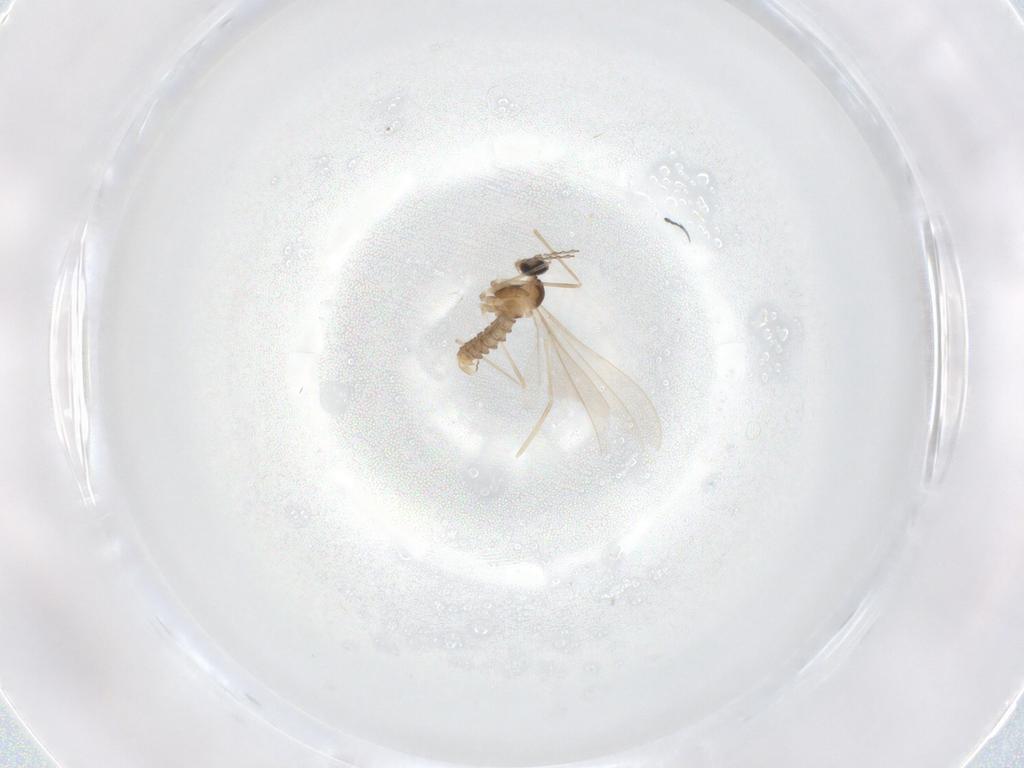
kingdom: Animalia
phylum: Arthropoda
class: Insecta
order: Diptera
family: Cecidomyiidae
